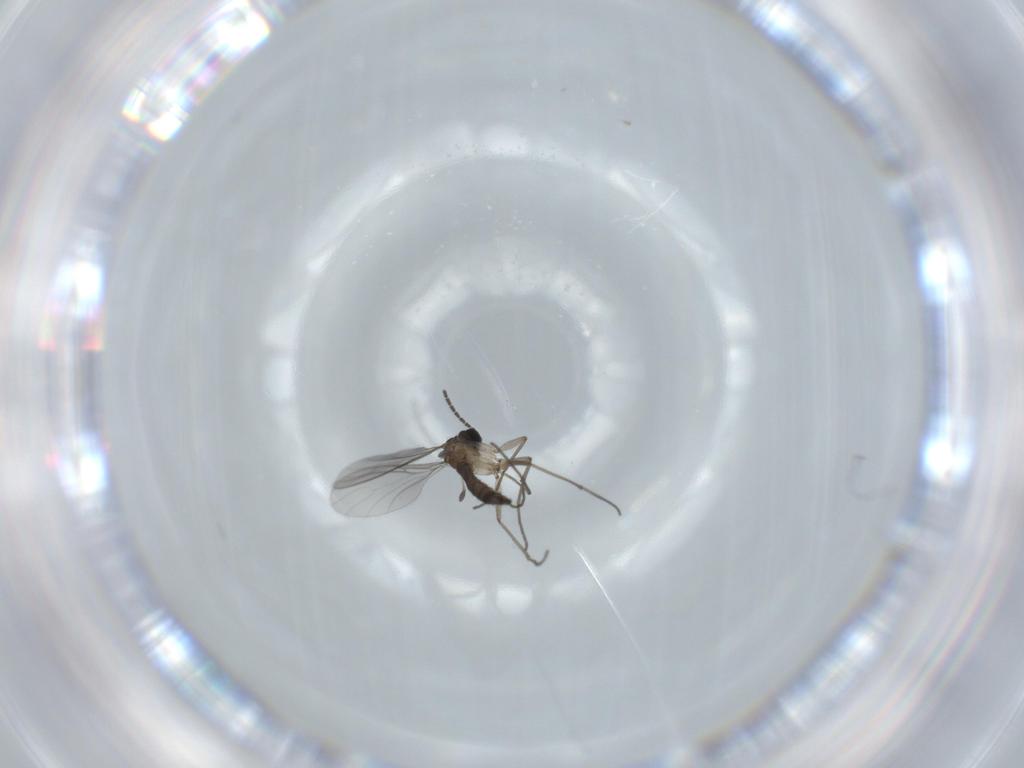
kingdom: Animalia
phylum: Arthropoda
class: Insecta
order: Diptera
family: Sciaridae
